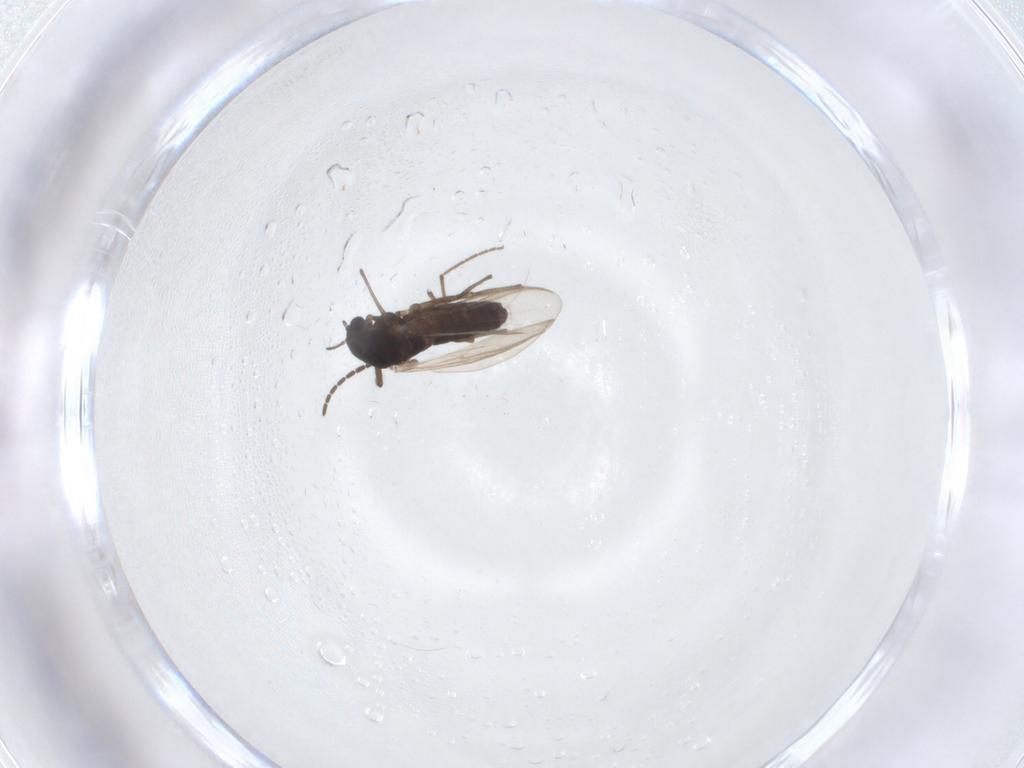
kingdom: Animalia
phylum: Arthropoda
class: Insecta
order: Diptera
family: Sciaridae
